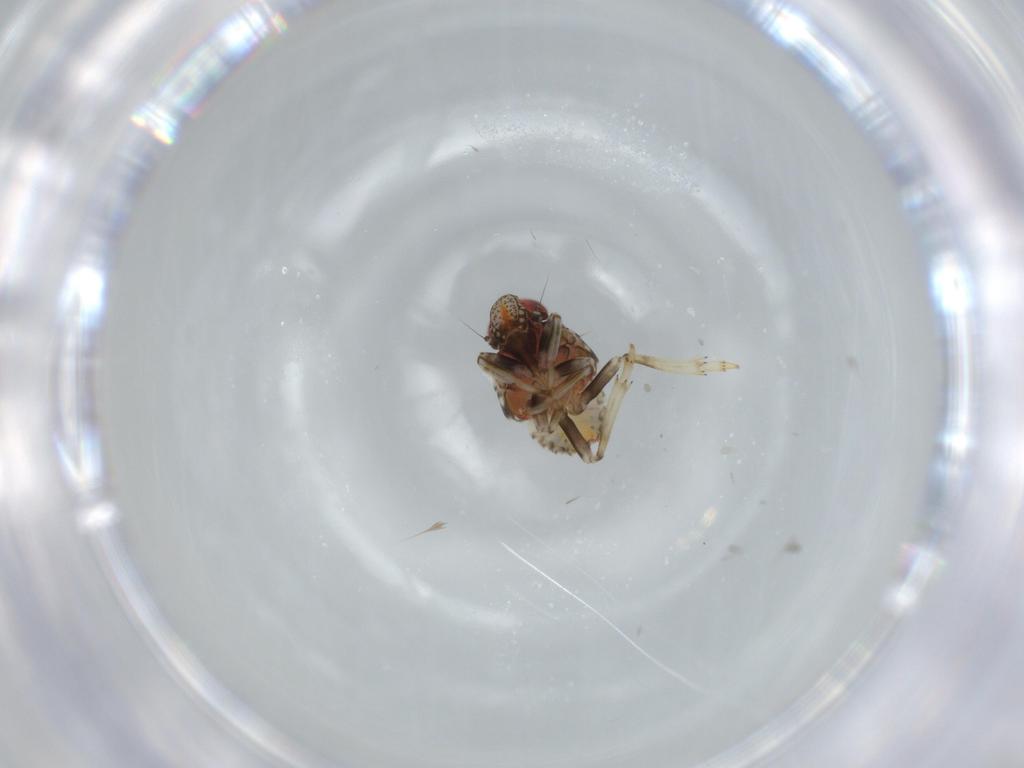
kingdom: Animalia
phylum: Arthropoda
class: Insecta
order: Hemiptera
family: Issidae
